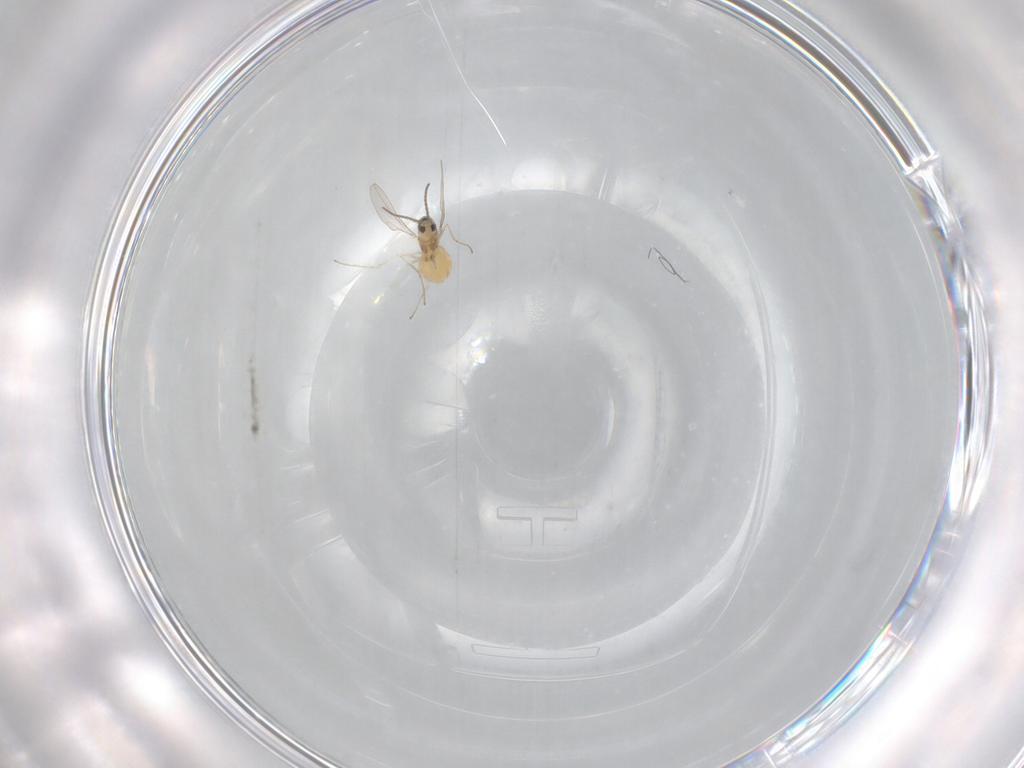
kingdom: Animalia
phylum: Arthropoda
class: Insecta
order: Diptera
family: Cecidomyiidae
